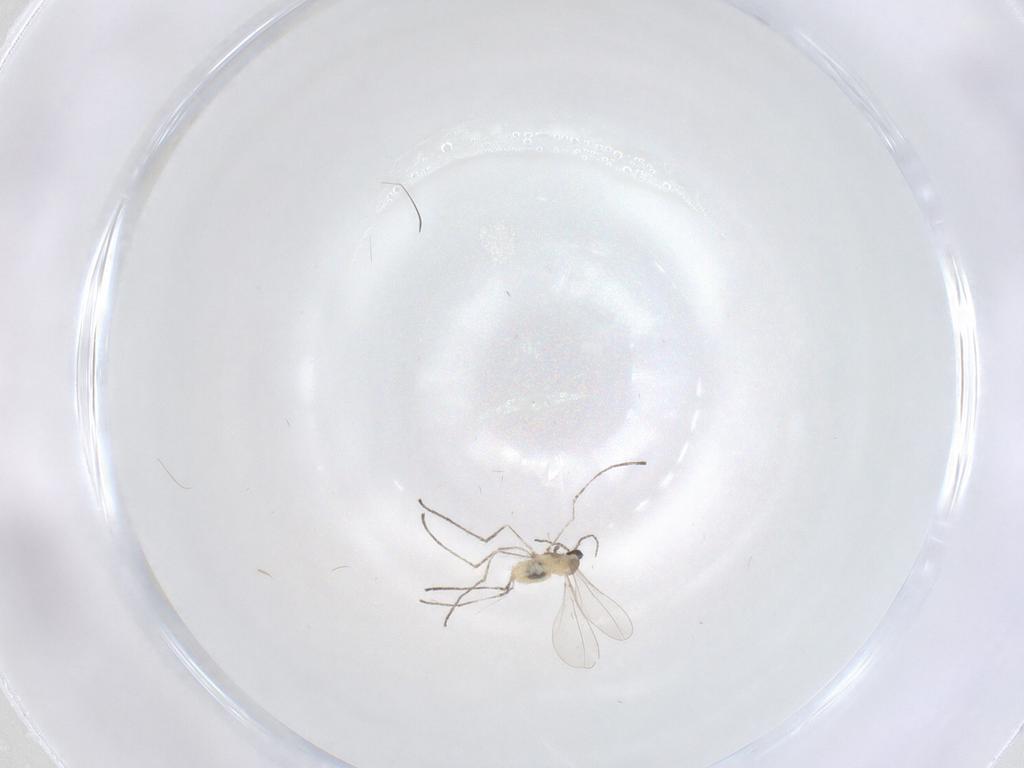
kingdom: Animalia
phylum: Arthropoda
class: Insecta
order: Diptera
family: Cecidomyiidae
